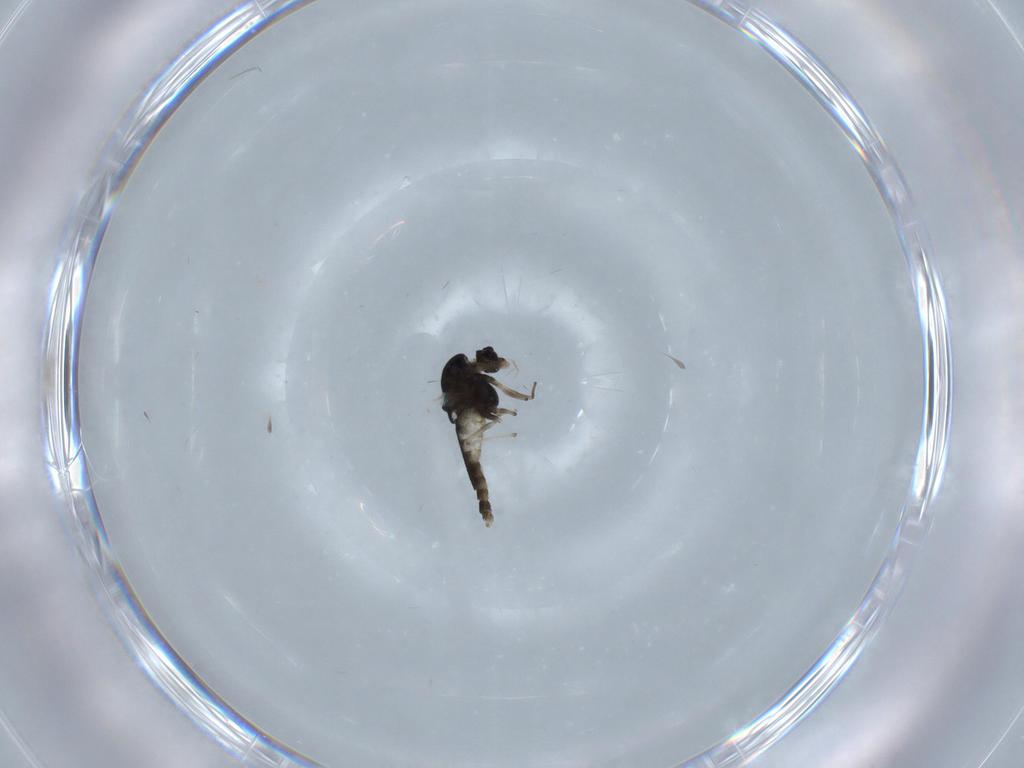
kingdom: Animalia
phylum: Arthropoda
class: Insecta
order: Diptera
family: Chironomidae
